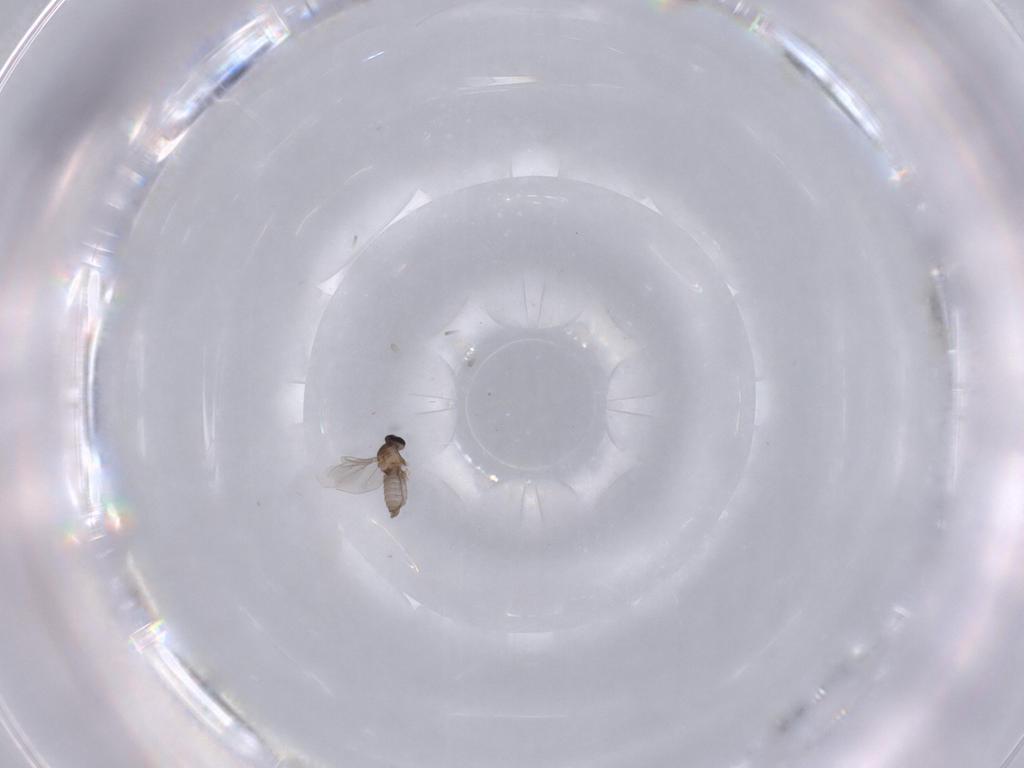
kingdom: Animalia
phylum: Arthropoda
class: Insecta
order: Diptera
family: Cecidomyiidae
